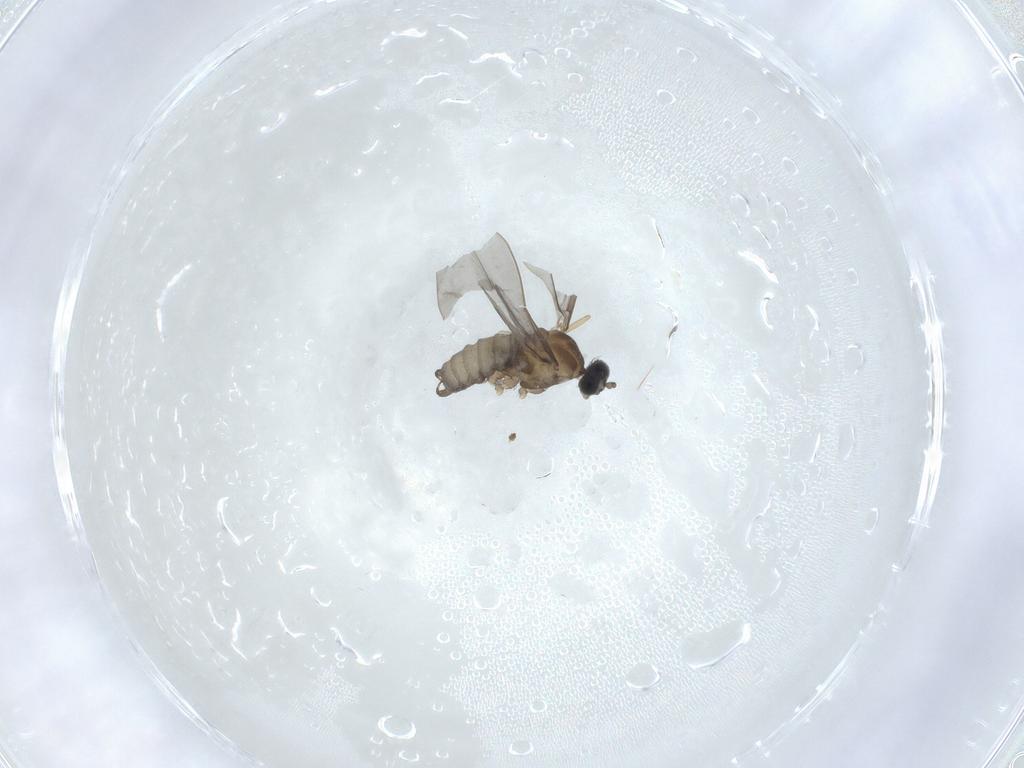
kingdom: Animalia
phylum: Arthropoda
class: Insecta
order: Diptera
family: Cecidomyiidae
